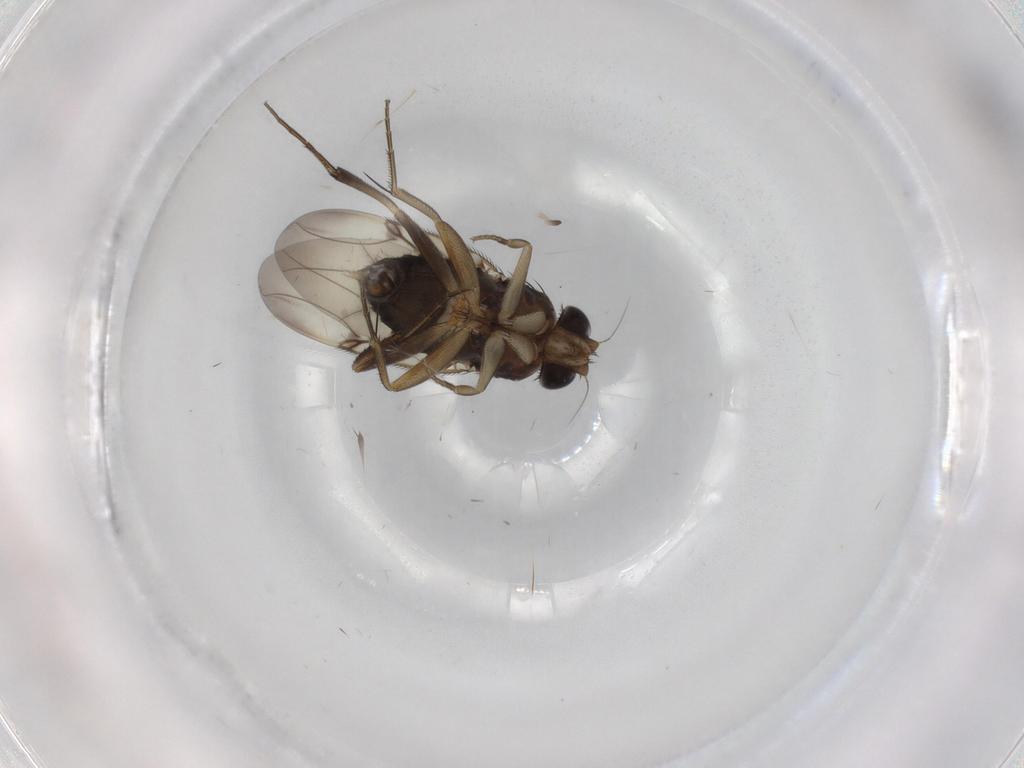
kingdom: Animalia
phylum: Arthropoda
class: Insecta
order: Diptera
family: Phoridae
